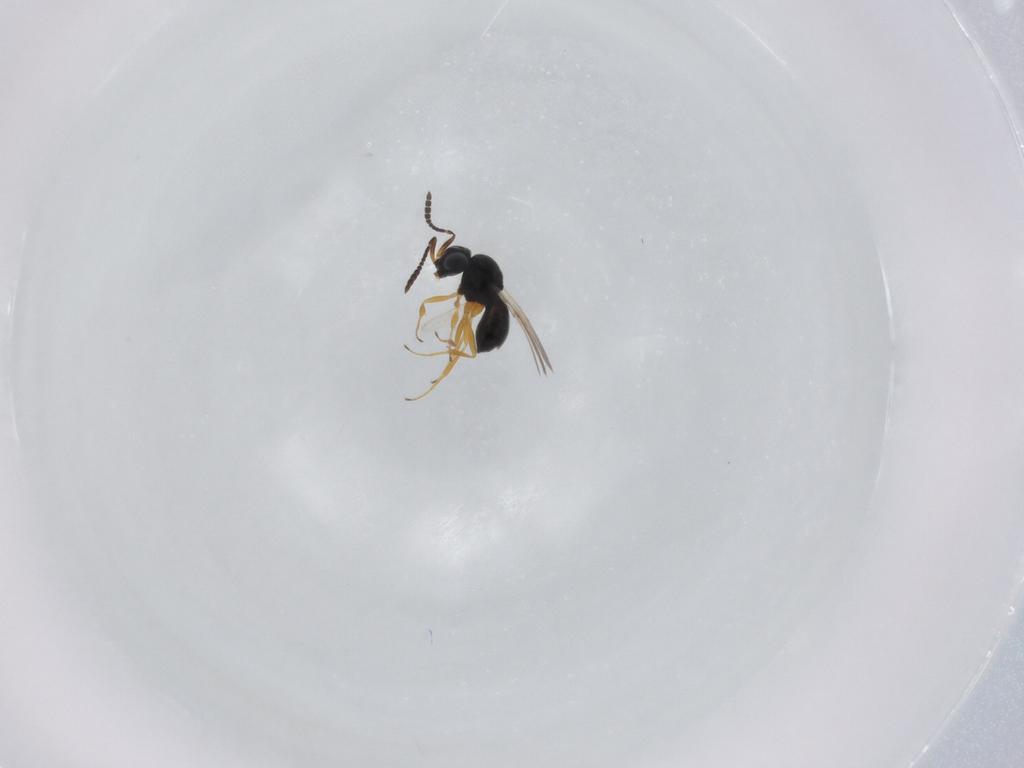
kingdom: Animalia
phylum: Arthropoda
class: Insecta
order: Hymenoptera
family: Scelionidae
